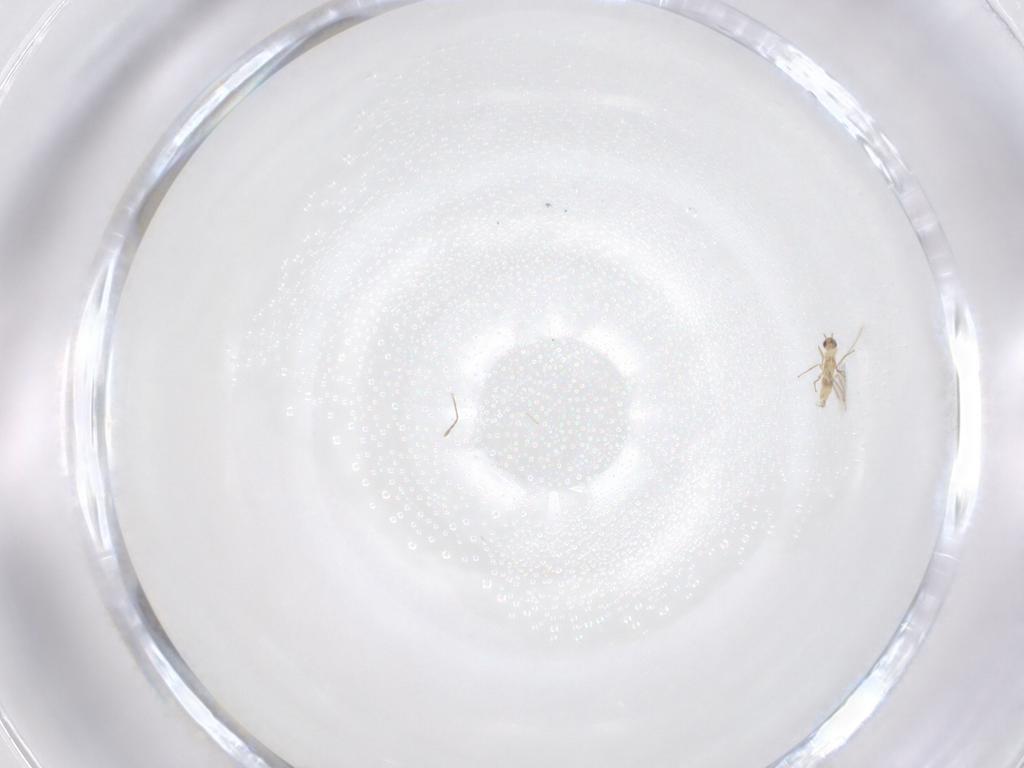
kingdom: Animalia
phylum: Arthropoda
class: Insecta
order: Hymenoptera
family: Mymaridae
